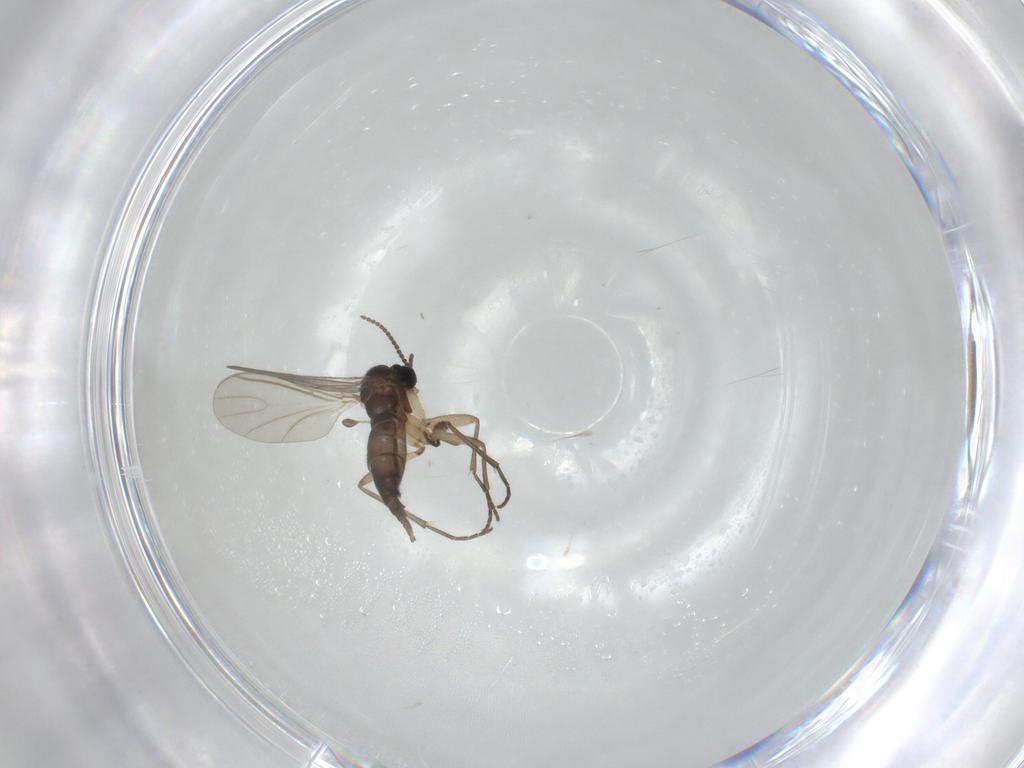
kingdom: Animalia
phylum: Arthropoda
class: Insecta
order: Diptera
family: Sciaridae
